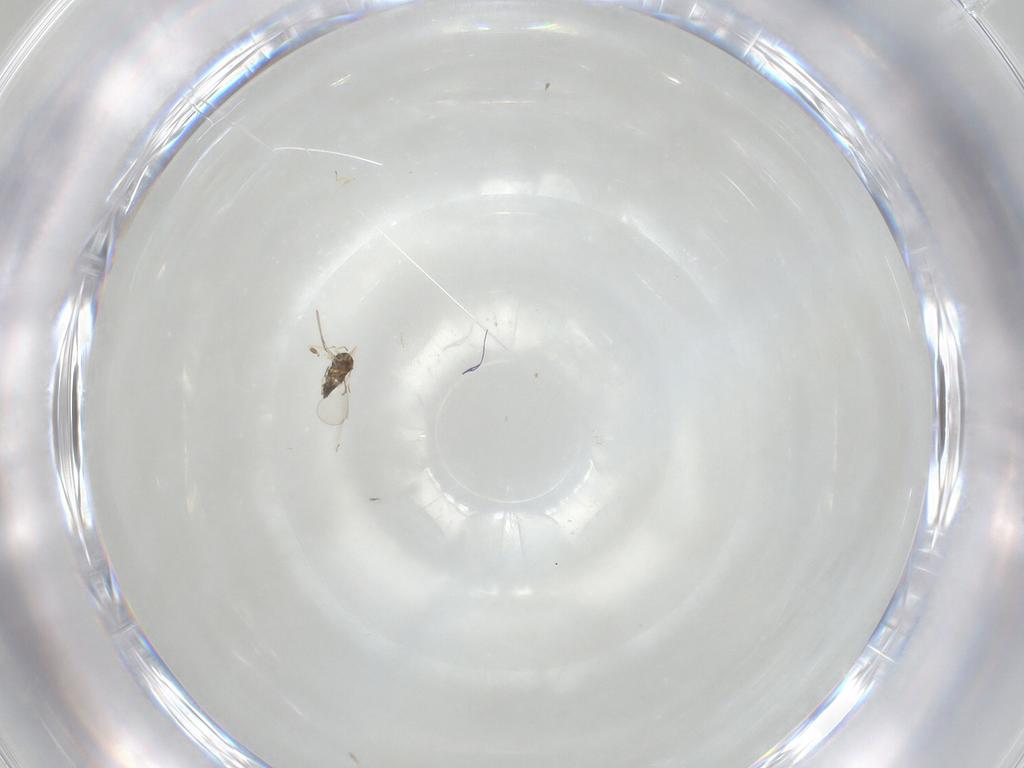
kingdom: Animalia
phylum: Arthropoda
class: Insecta
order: Hymenoptera
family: Trichogrammatidae
